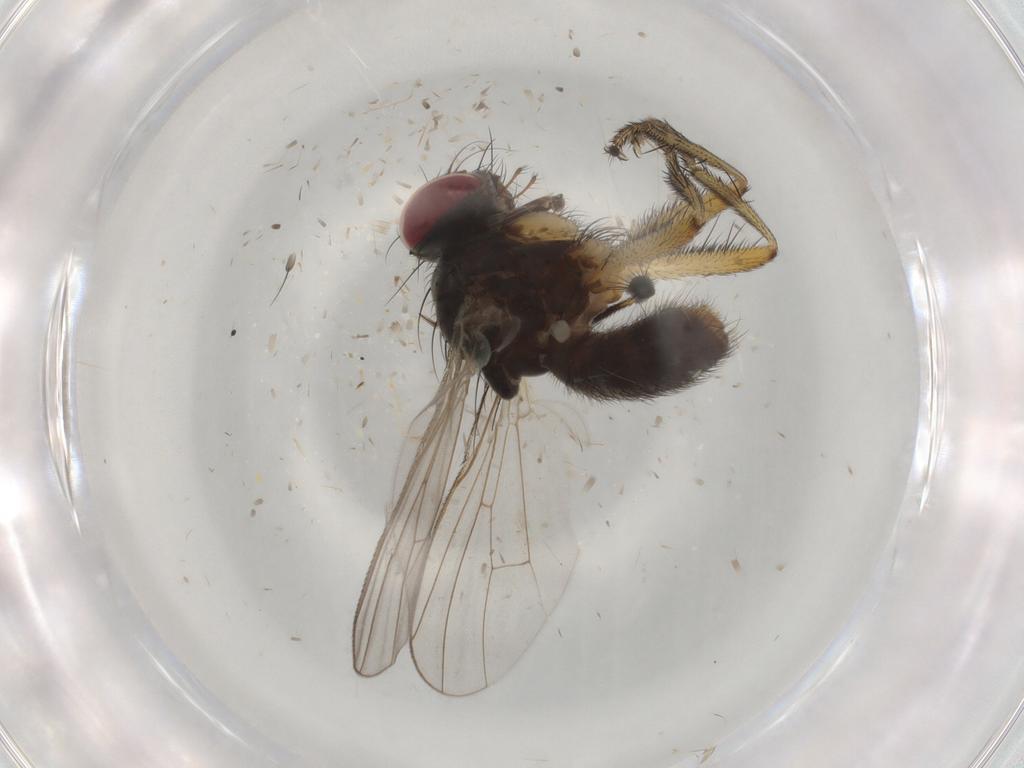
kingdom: Animalia
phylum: Arthropoda
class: Insecta
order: Diptera
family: Muscidae
